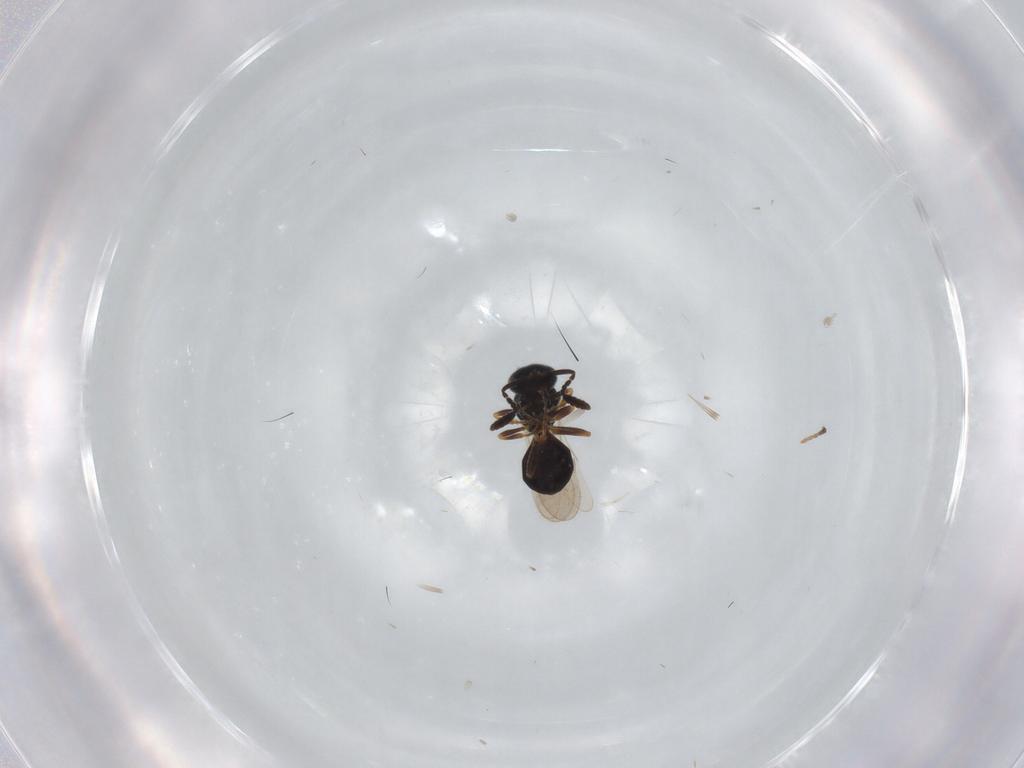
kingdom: Animalia
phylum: Arthropoda
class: Insecta
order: Hymenoptera
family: Scelionidae
